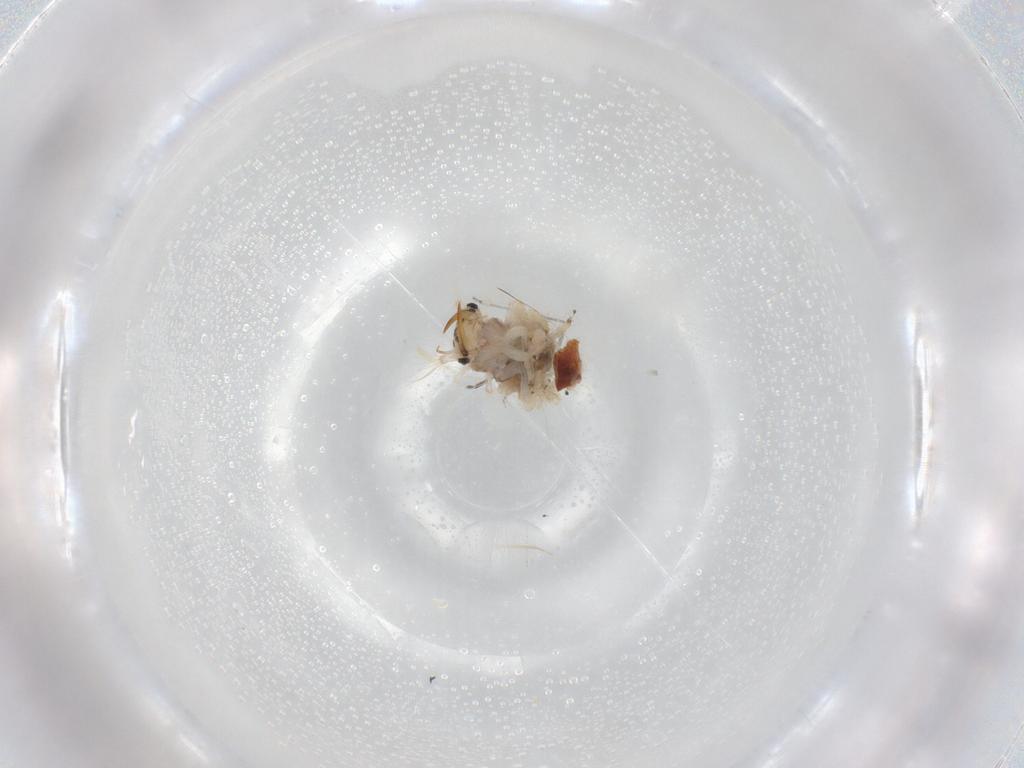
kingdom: Animalia
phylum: Arthropoda
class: Insecta
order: Neuroptera
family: Chrysopidae
